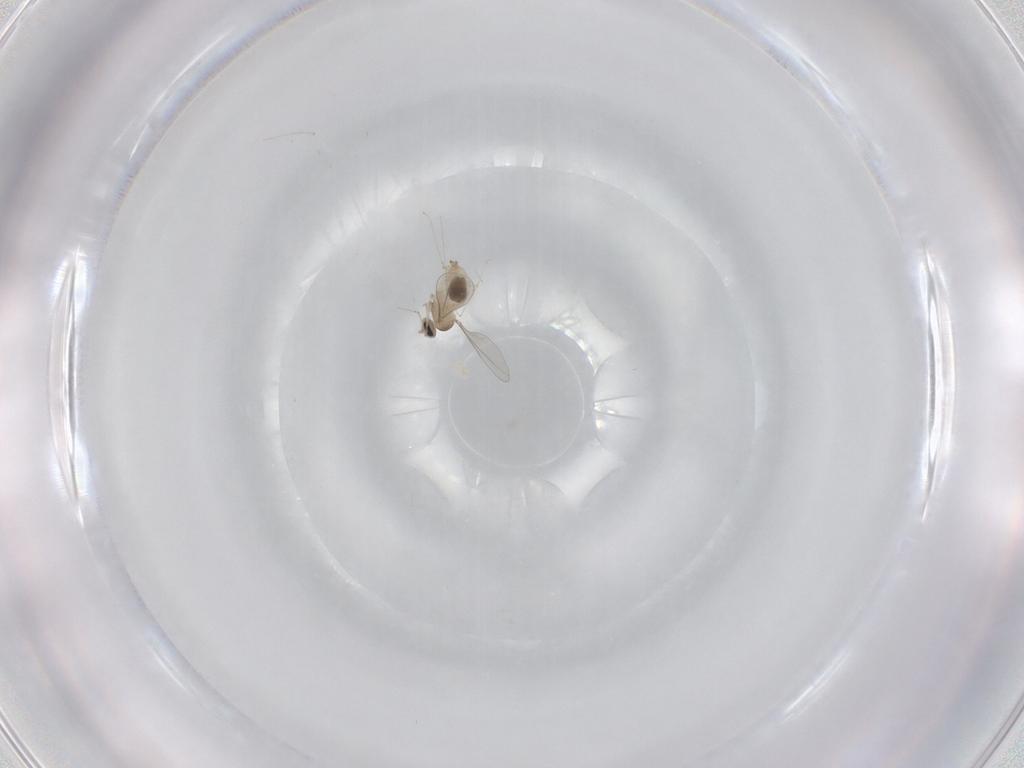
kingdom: Animalia
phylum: Arthropoda
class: Insecta
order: Diptera
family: Cecidomyiidae
